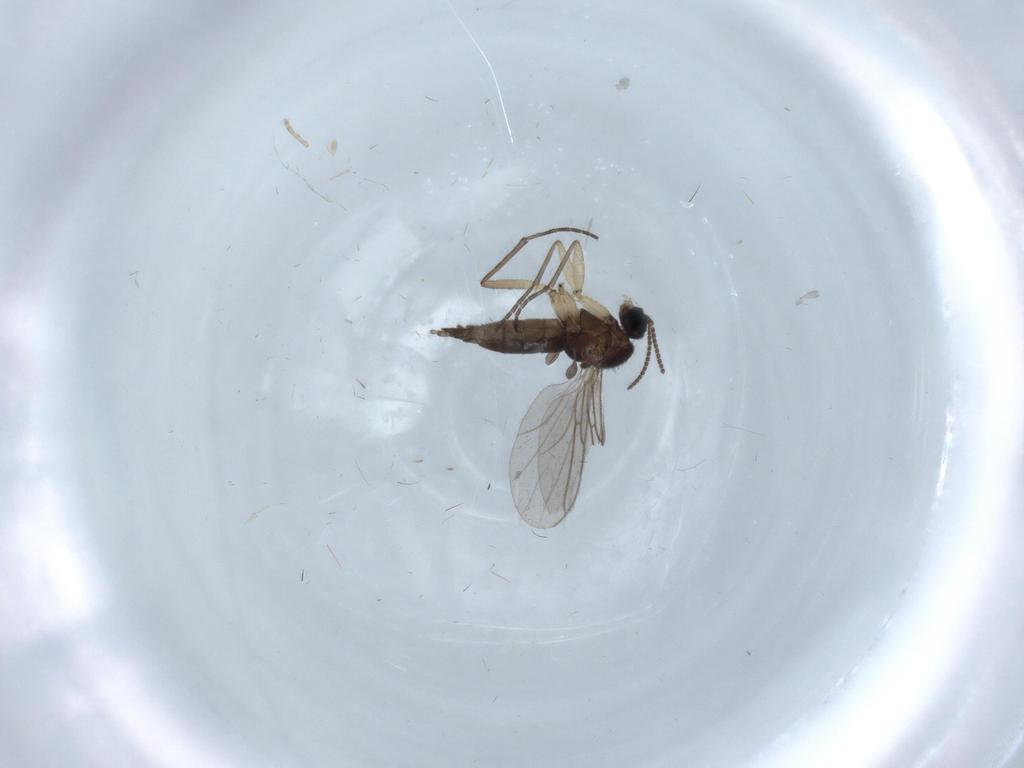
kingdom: Animalia
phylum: Arthropoda
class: Insecta
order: Diptera
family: Sciaridae
